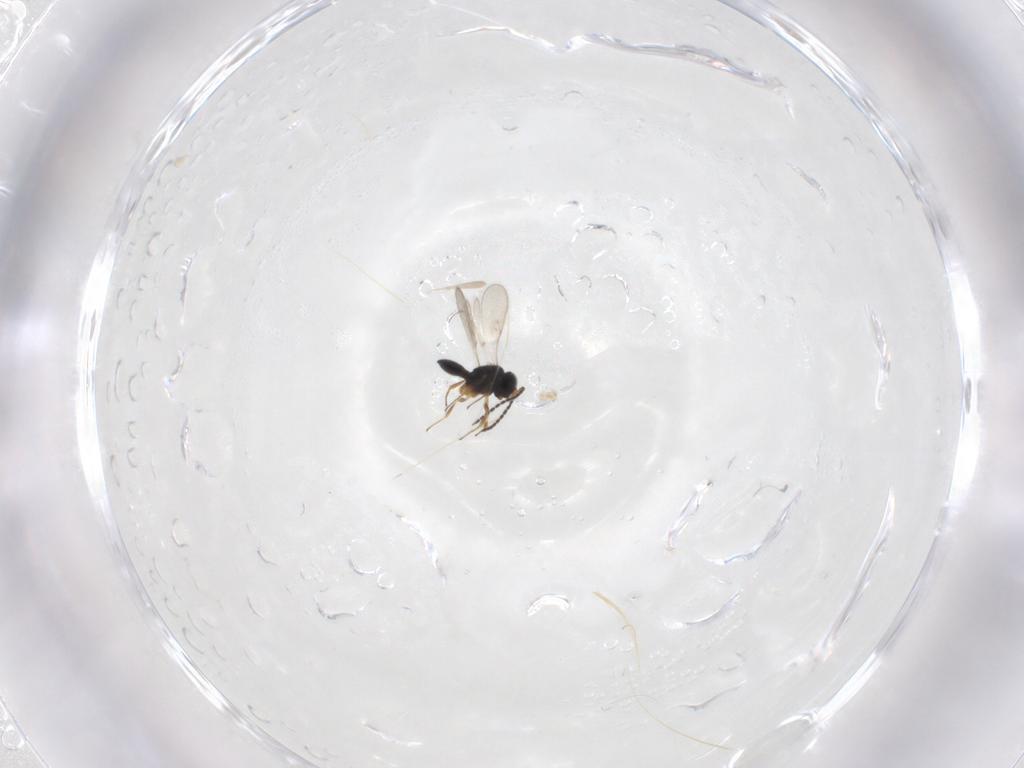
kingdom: Animalia
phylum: Arthropoda
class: Insecta
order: Hymenoptera
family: Scelionidae
